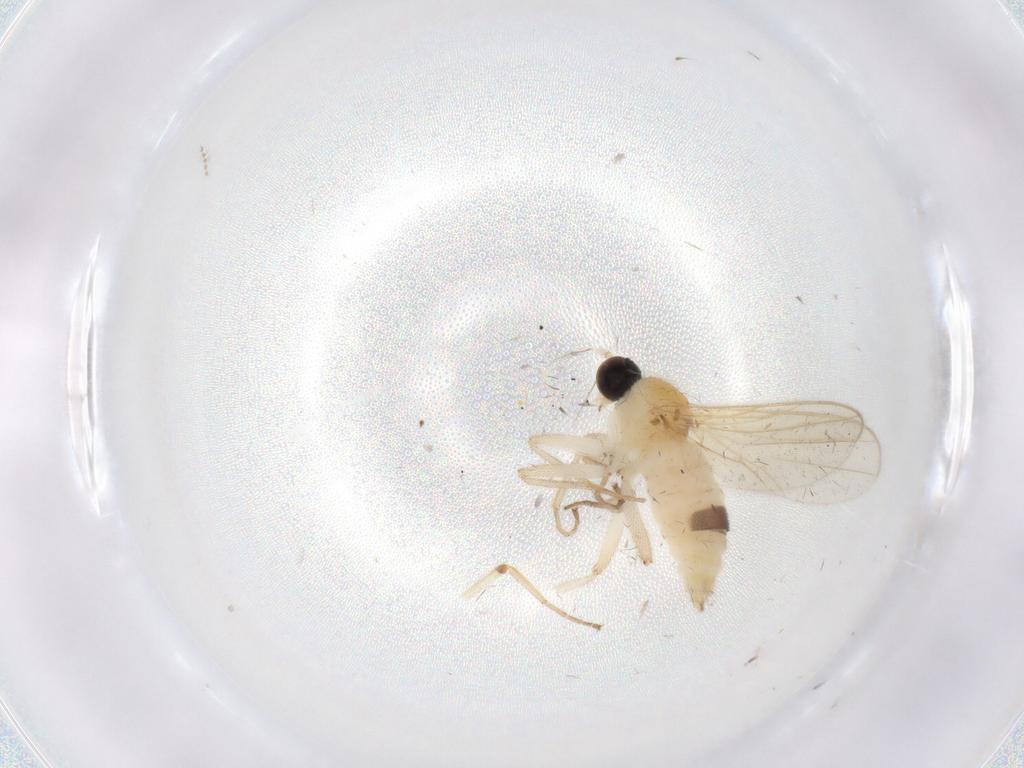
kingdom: Animalia
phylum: Arthropoda
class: Insecta
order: Diptera
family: Hybotidae
